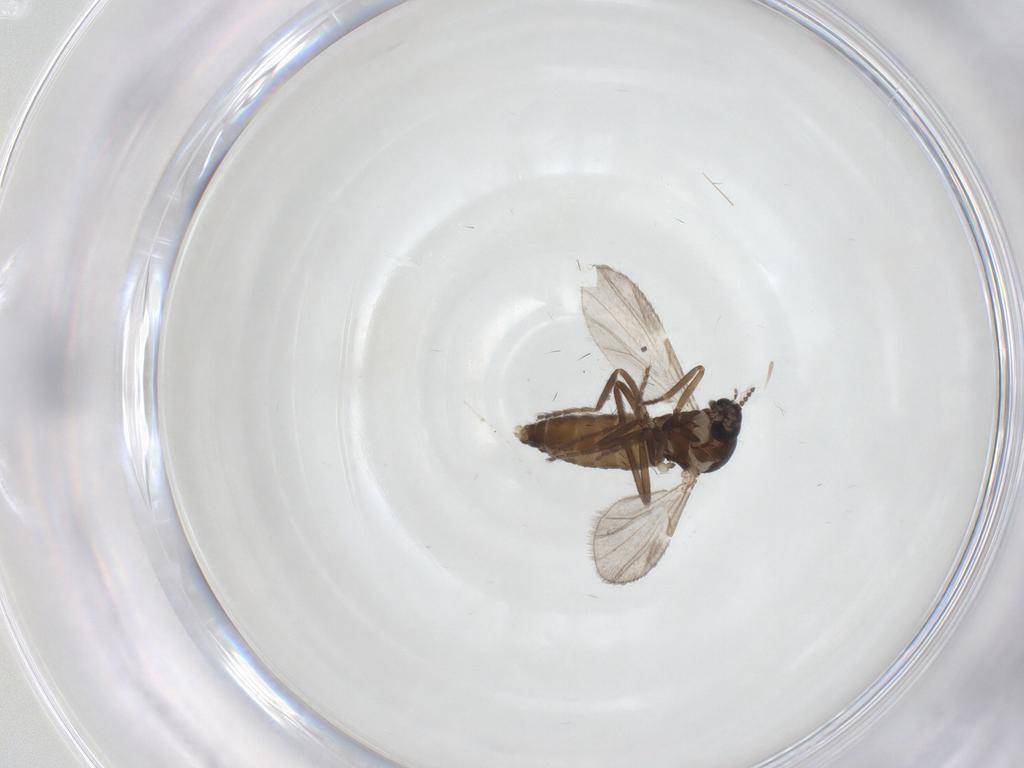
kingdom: Animalia
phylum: Arthropoda
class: Insecta
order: Diptera
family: Ceratopogonidae
